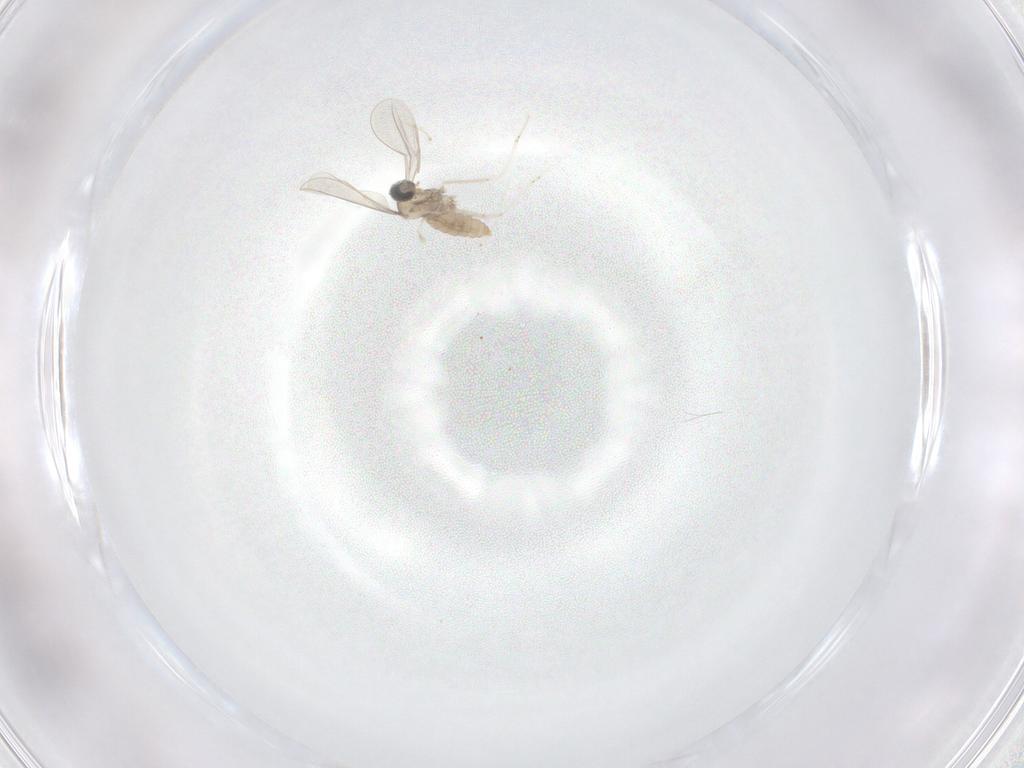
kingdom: Animalia
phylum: Arthropoda
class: Insecta
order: Diptera
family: Cecidomyiidae
